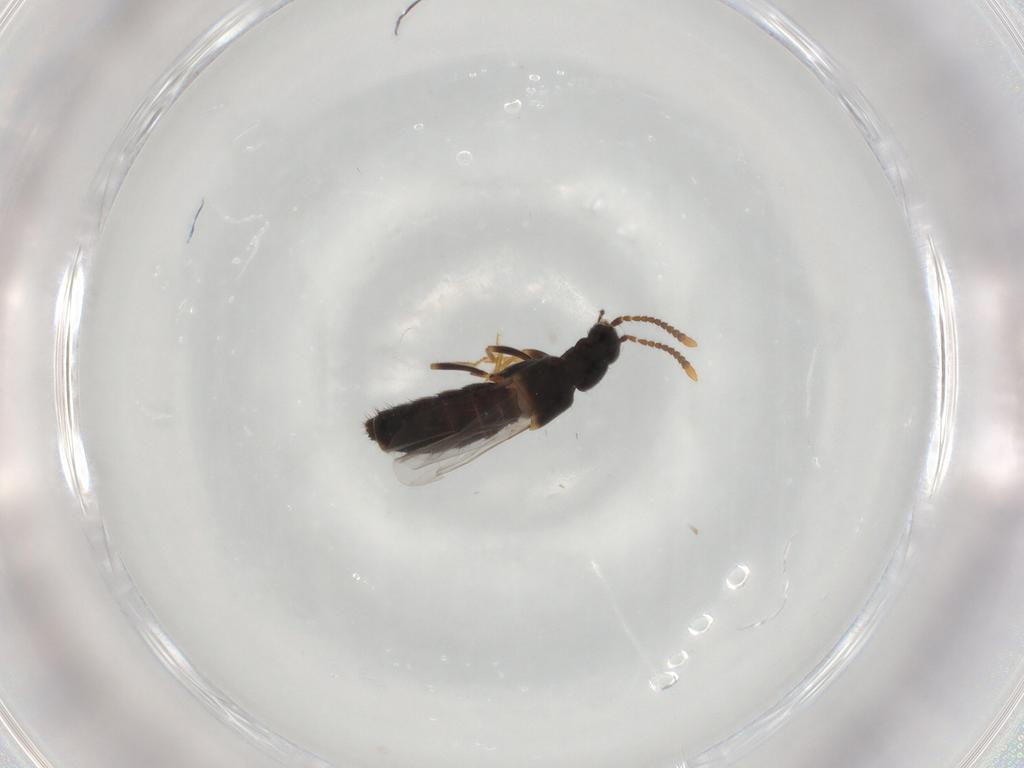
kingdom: Animalia
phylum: Arthropoda
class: Insecta
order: Coleoptera
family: Staphylinidae
